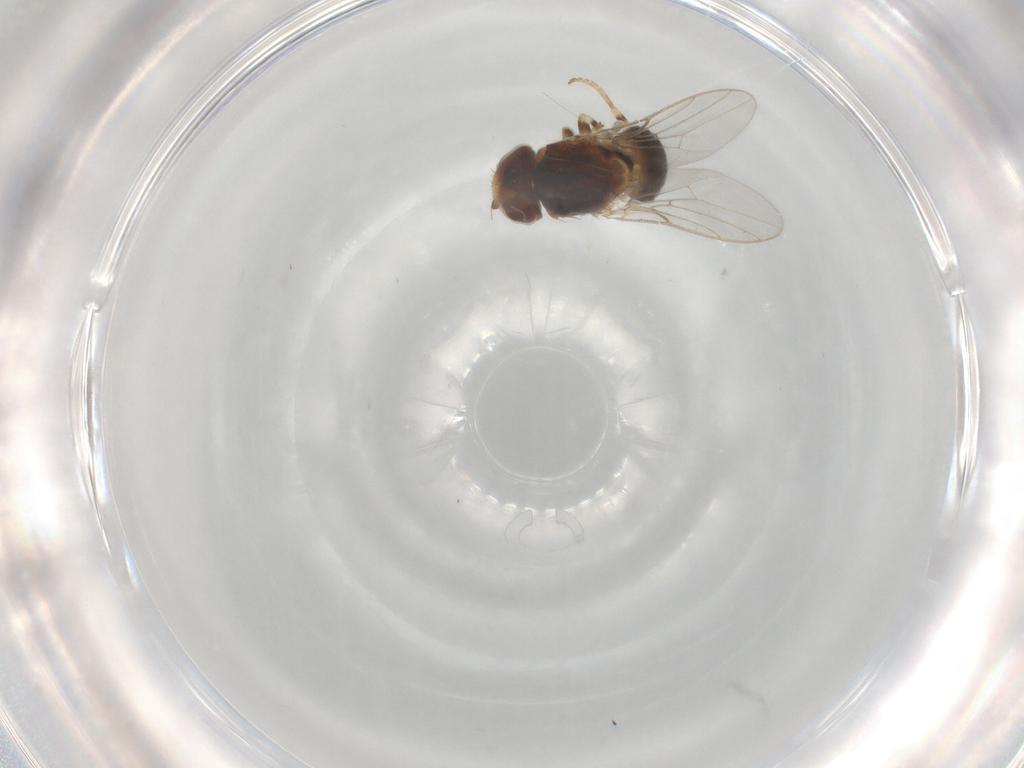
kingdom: Animalia
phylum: Arthropoda
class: Insecta
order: Diptera
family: Chloropidae
